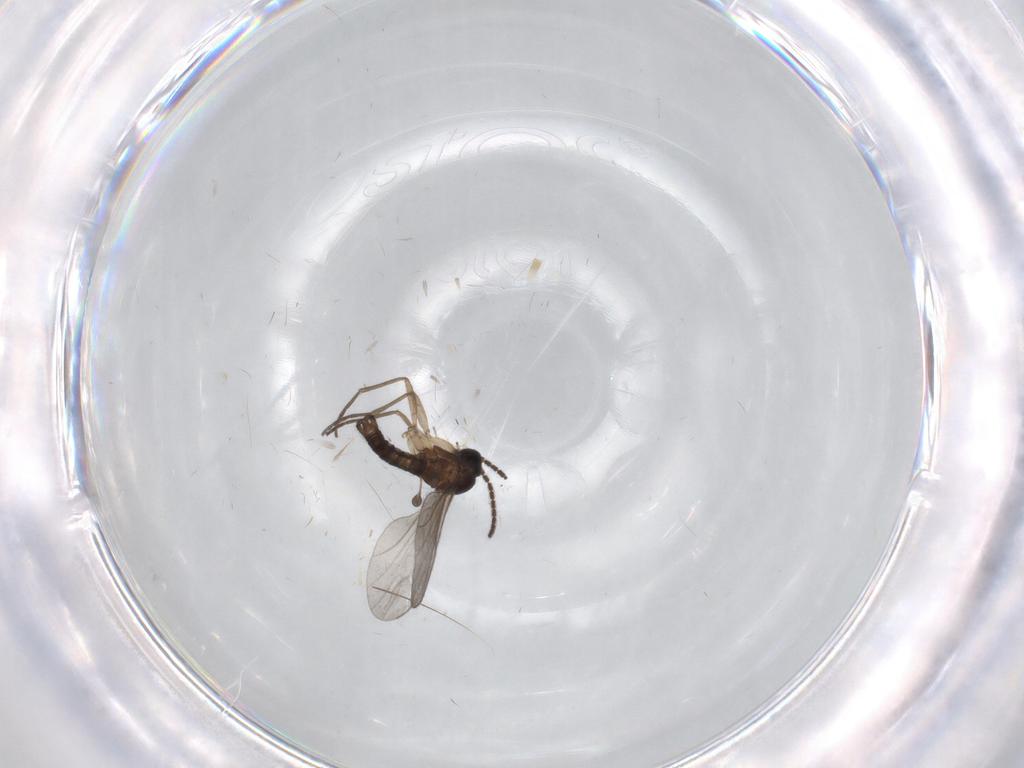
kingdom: Animalia
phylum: Arthropoda
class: Insecta
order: Diptera
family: Sciaridae
